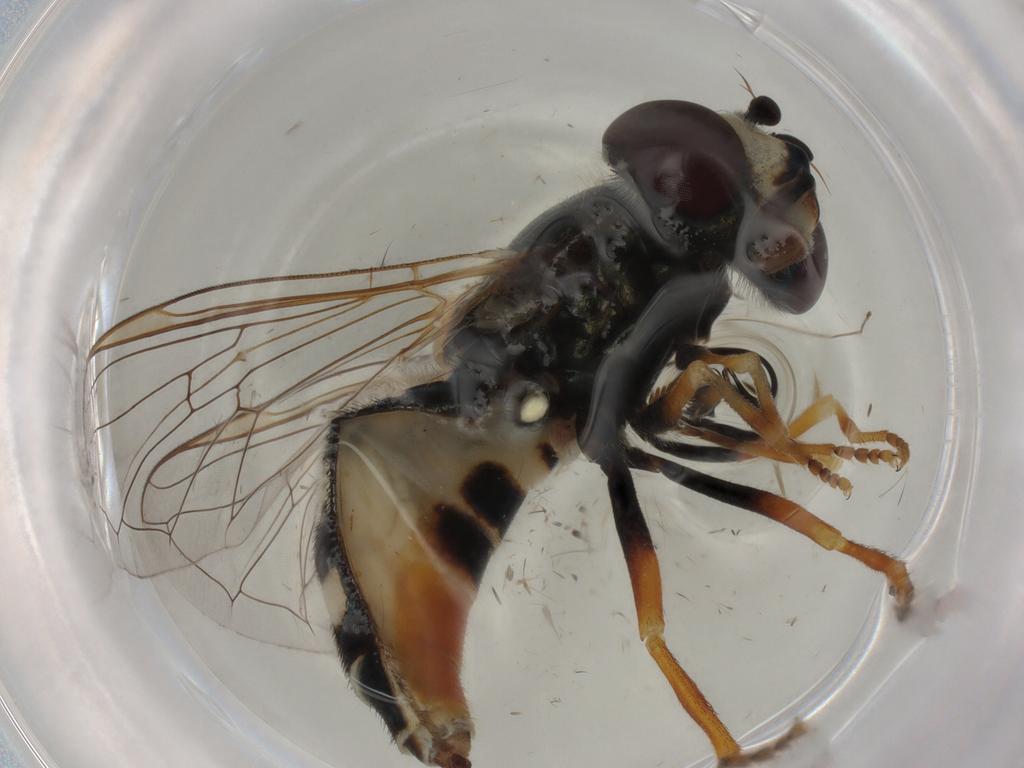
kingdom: Animalia
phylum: Arthropoda
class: Insecta
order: Diptera
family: Syrphidae
